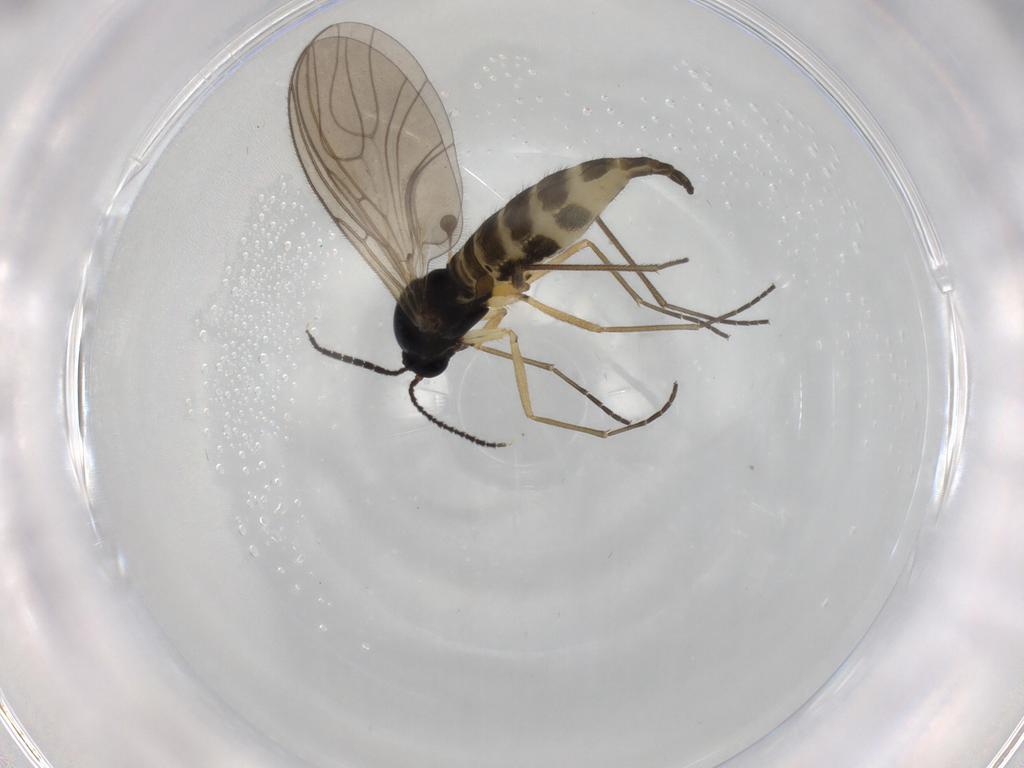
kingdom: Animalia
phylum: Arthropoda
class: Insecta
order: Diptera
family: Sciaridae
